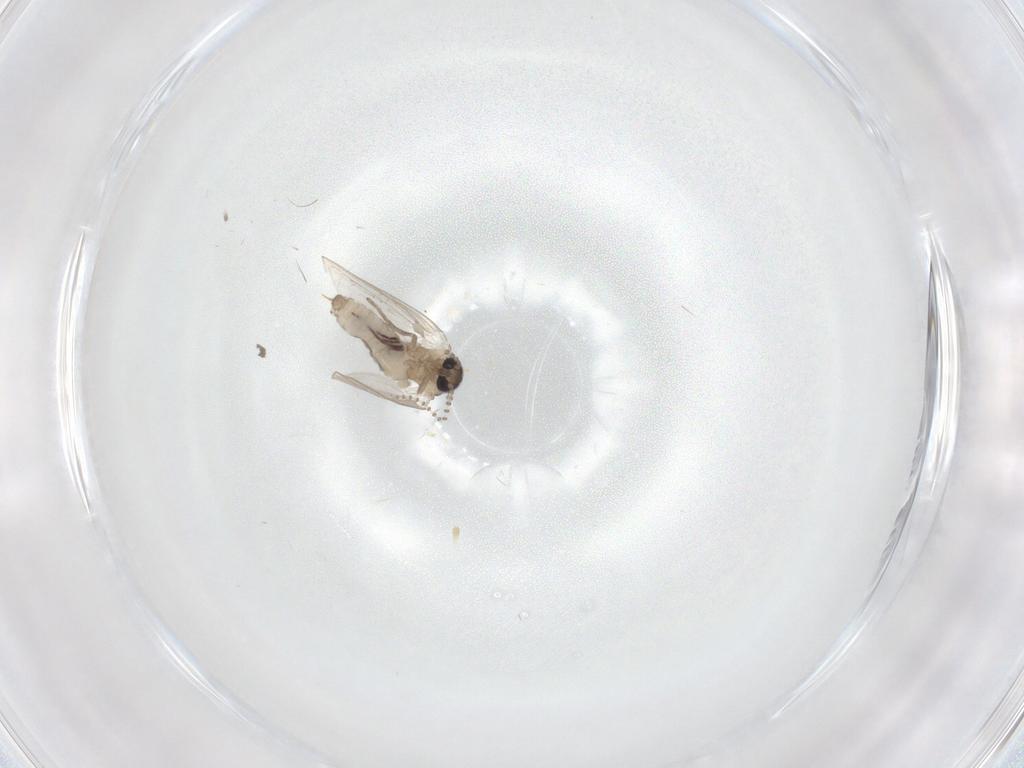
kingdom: Animalia
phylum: Arthropoda
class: Insecta
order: Diptera
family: Psychodidae
